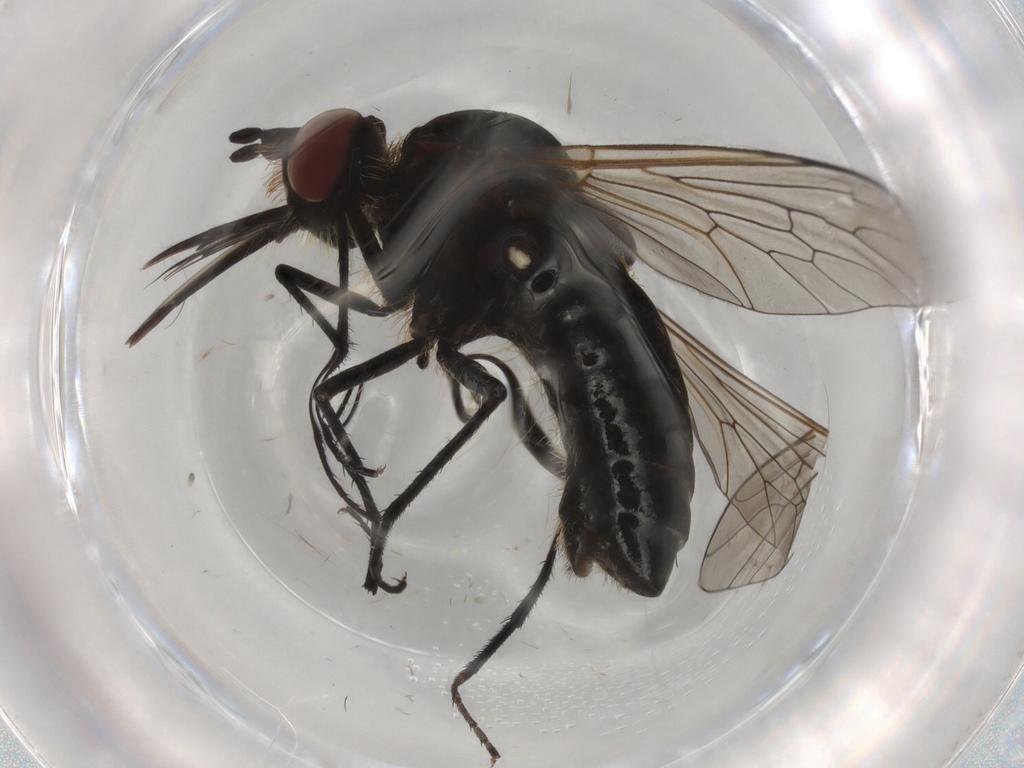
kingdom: Animalia
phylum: Arthropoda
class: Insecta
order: Diptera
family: Bombyliidae
